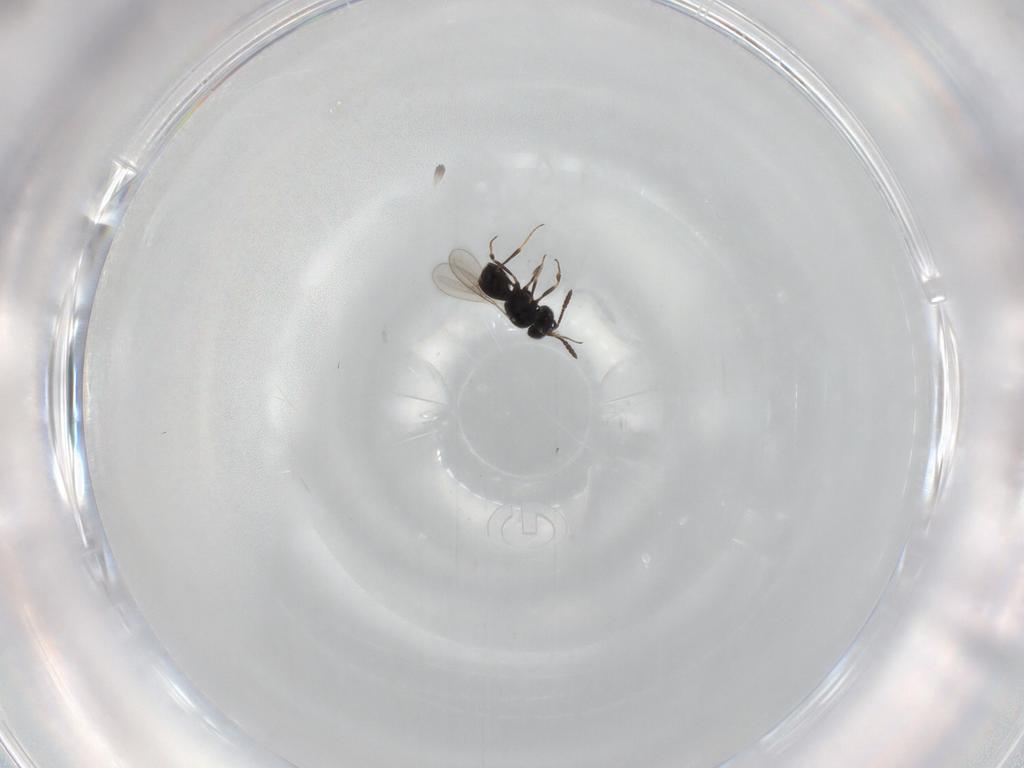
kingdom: Animalia
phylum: Arthropoda
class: Insecta
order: Hymenoptera
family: Scelionidae
